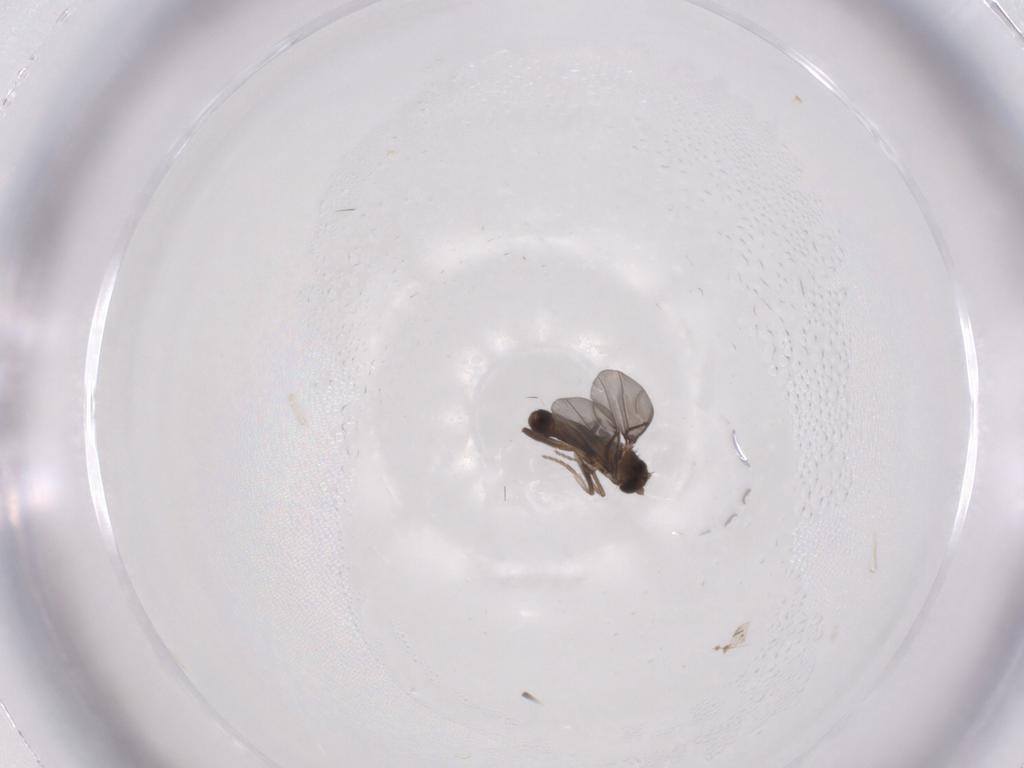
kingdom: Animalia
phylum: Arthropoda
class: Insecta
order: Diptera
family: Phoridae
